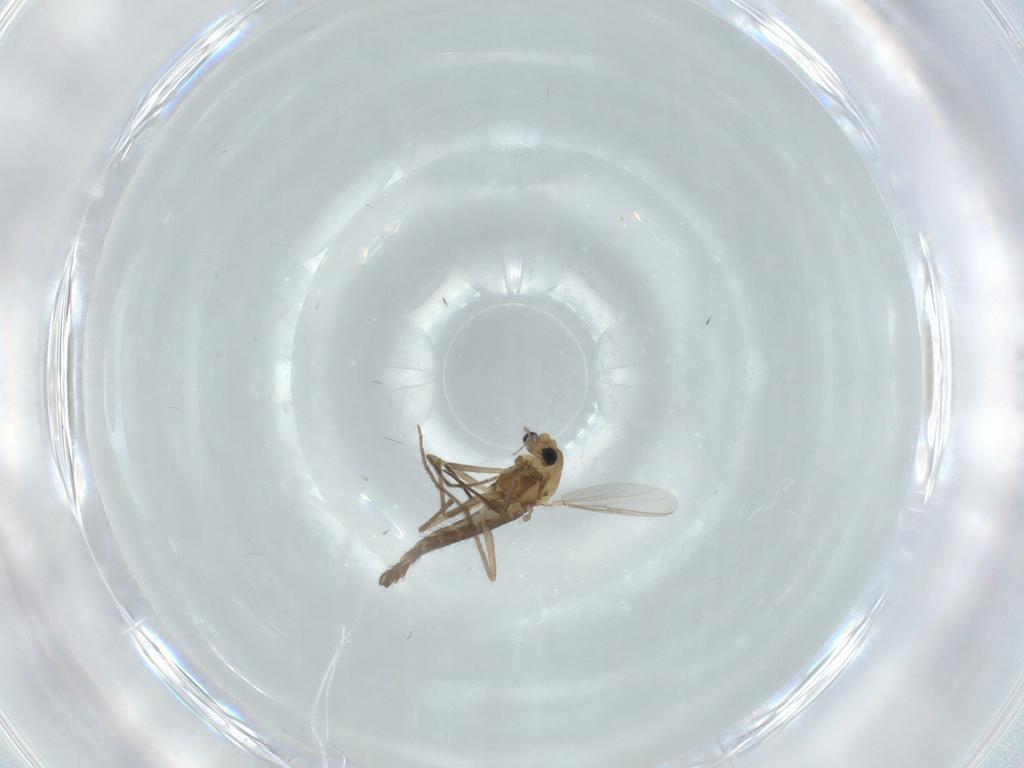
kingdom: Animalia
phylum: Arthropoda
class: Insecta
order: Diptera
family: Chironomidae
